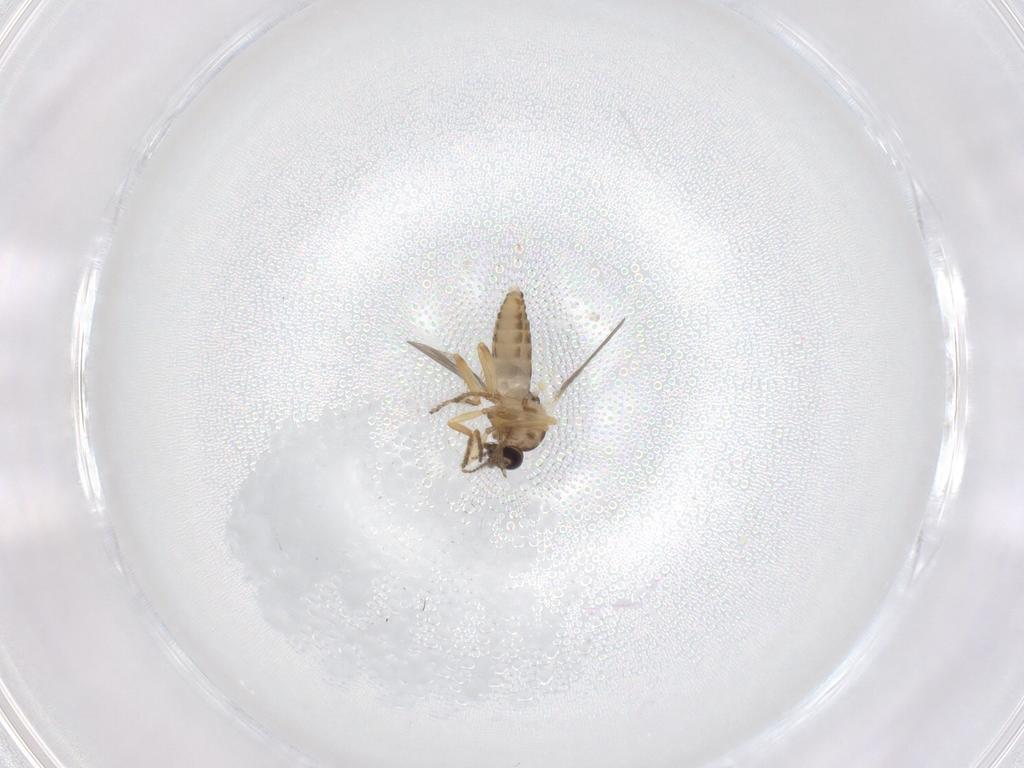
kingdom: Animalia
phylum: Arthropoda
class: Insecta
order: Diptera
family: Ceratopogonidae
